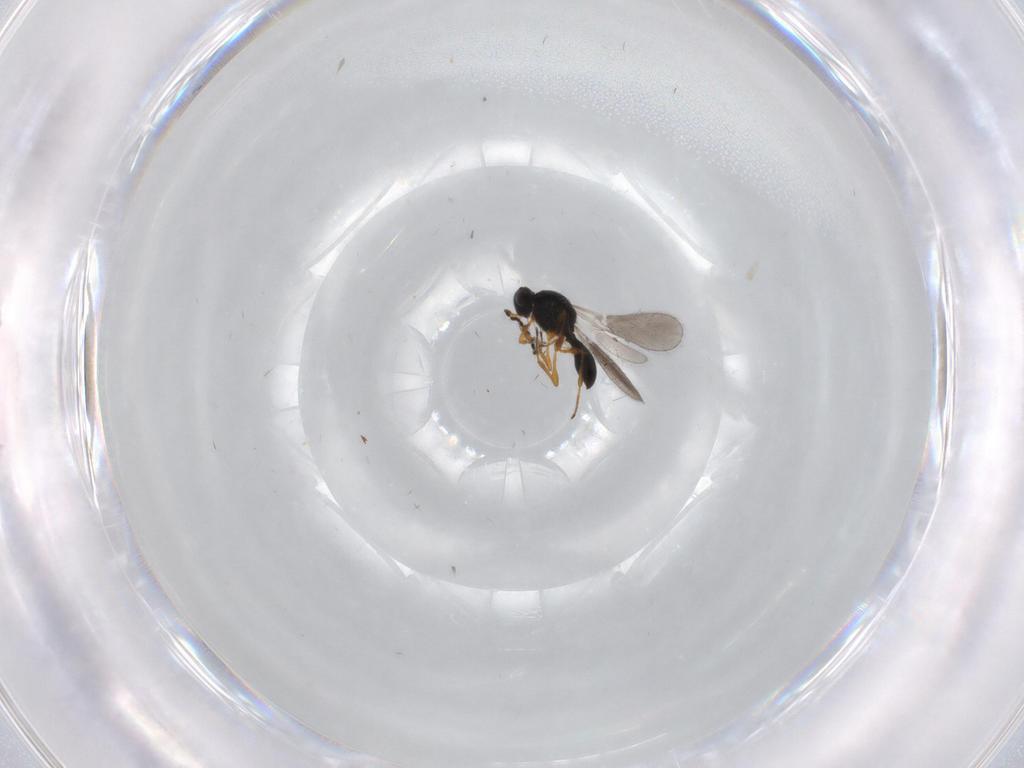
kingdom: Animalia
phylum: Arthropoda
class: Insecta
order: Hymenoptera
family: Platygastridae
